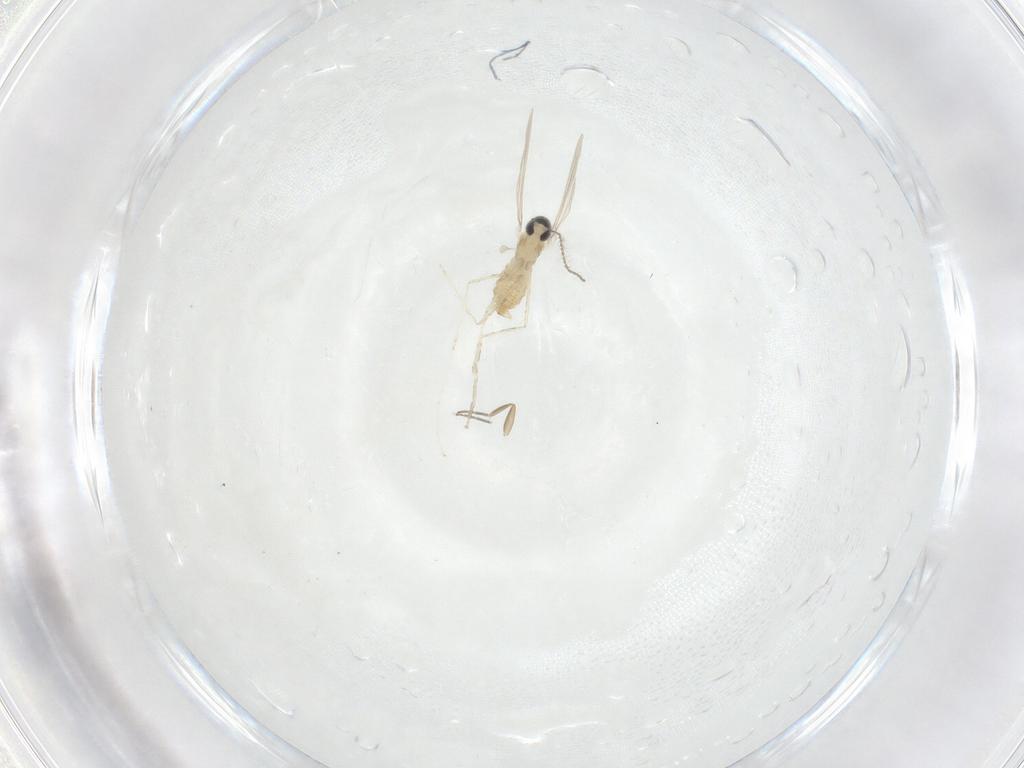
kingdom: Animalia
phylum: Arthropoda
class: Insecta
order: Diptera
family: Cecidomyiidae
